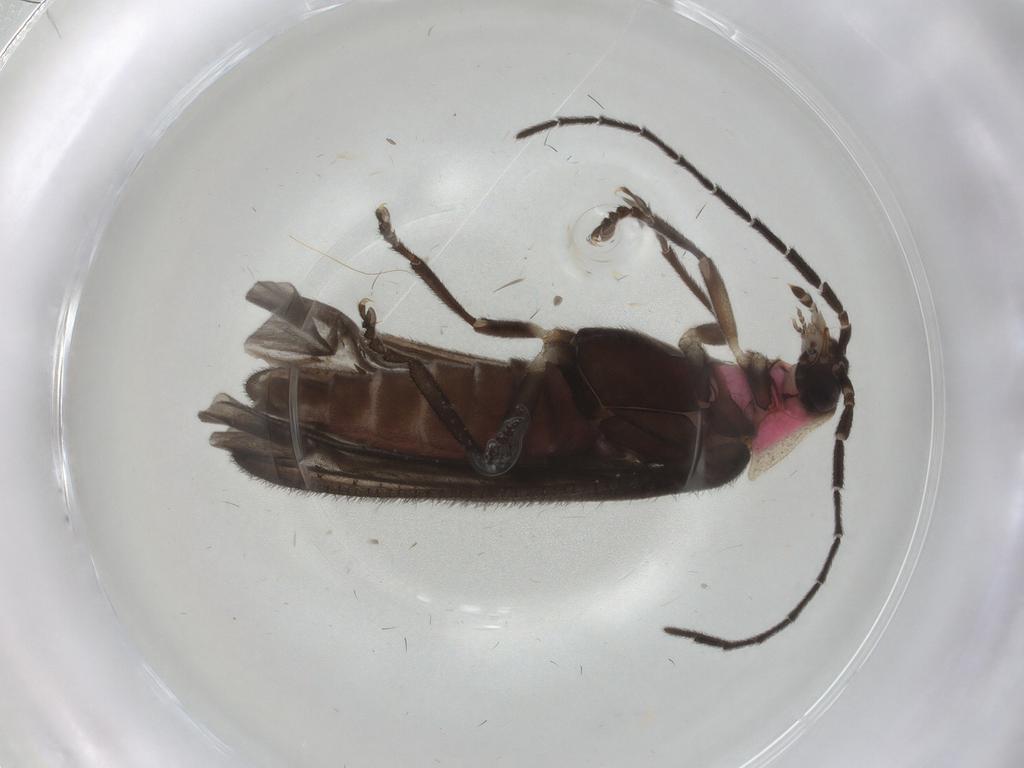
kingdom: Animalia
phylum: Arthropoda
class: Insecta
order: Coleoptera
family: Lampyridae
